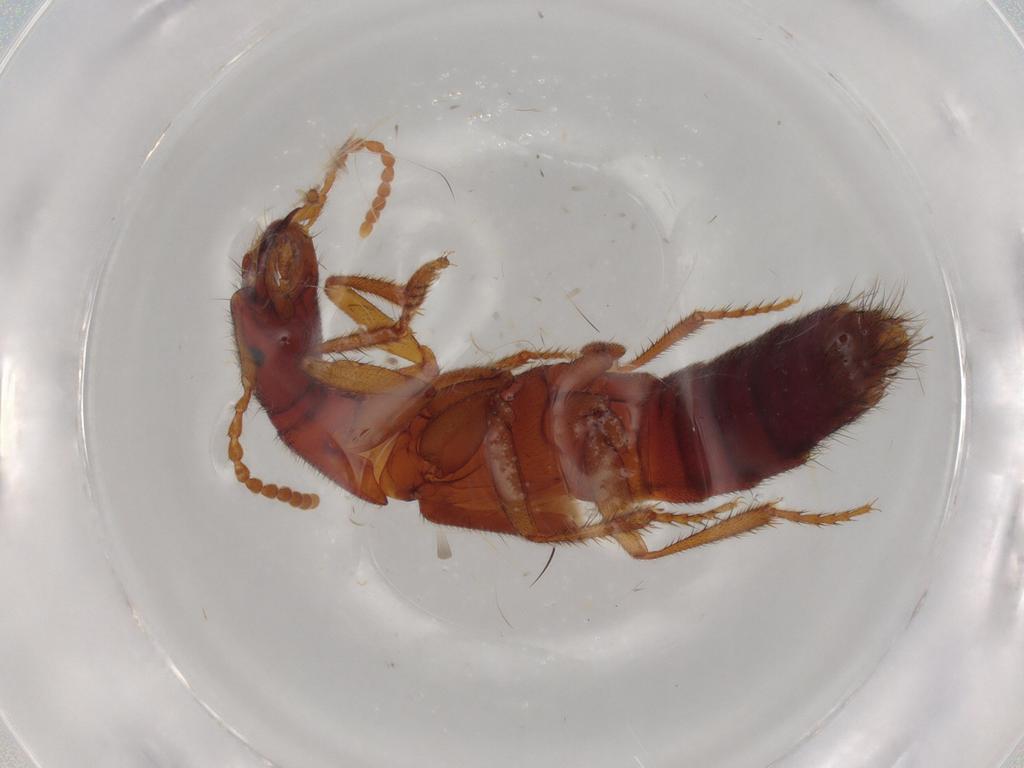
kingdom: Animalia
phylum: Arthropoda
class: Insecta
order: Coleoptera
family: Staphylinidae
